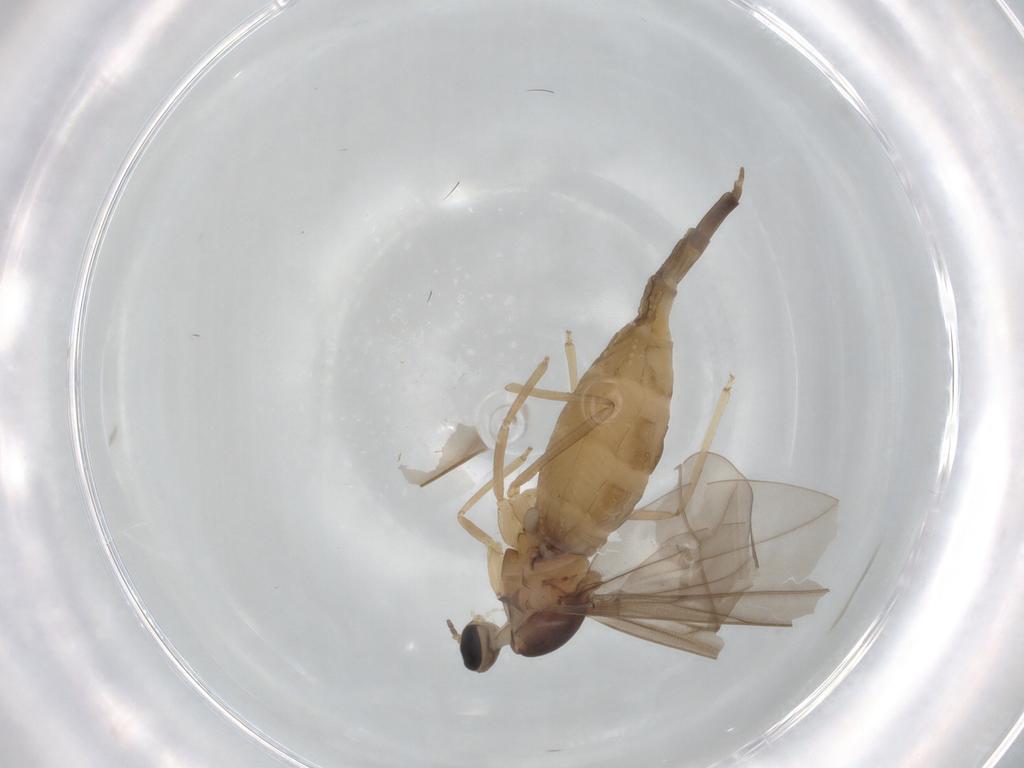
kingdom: Animalia
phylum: Arthropoda
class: Insecta
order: Diptera
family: Cecidomyiidae
